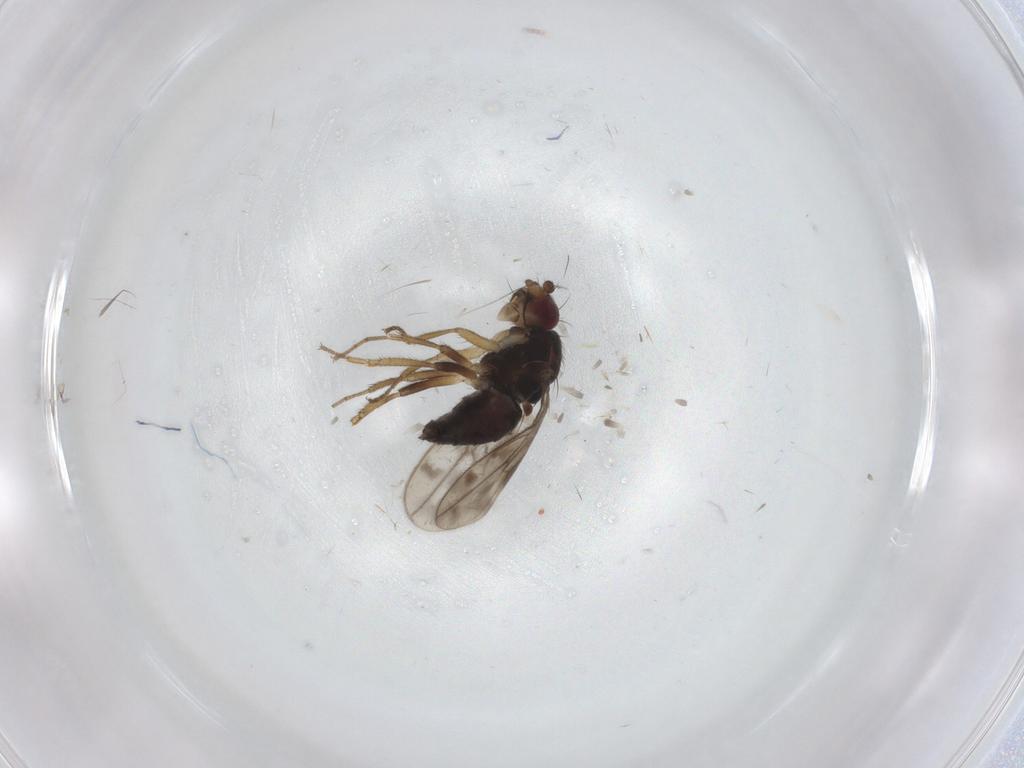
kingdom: Animalia
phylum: Arthropoda
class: Insecta
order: Diptera
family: Sphaeroceridae
